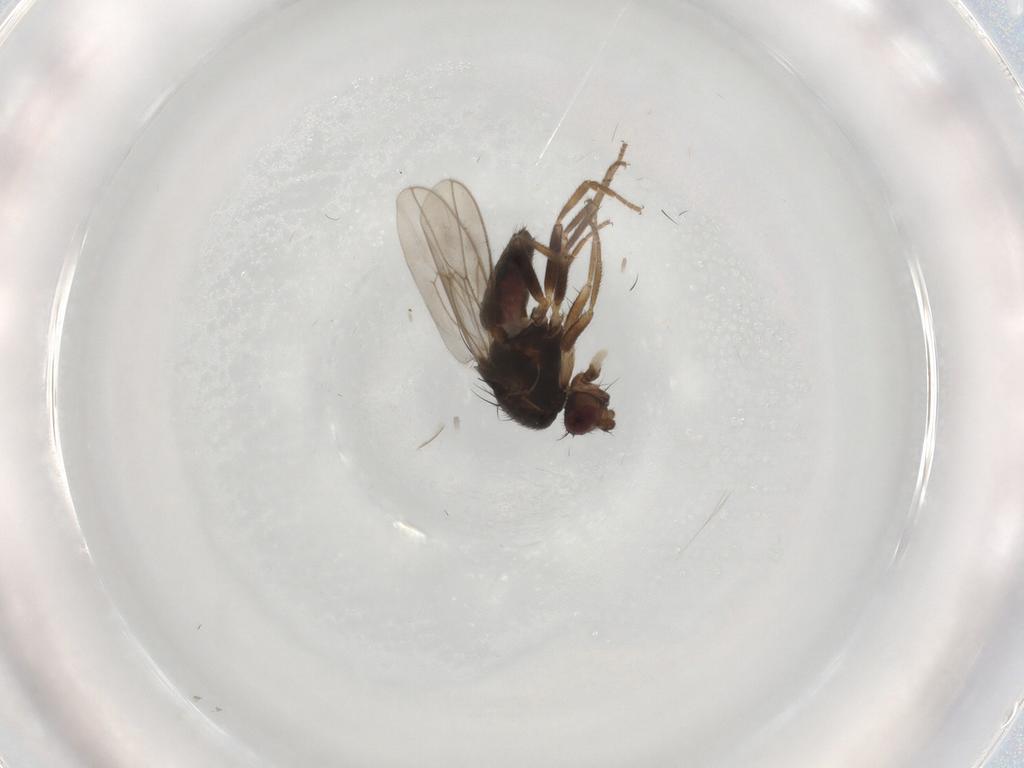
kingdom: Animalia
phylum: Arthropoda
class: Insecta
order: Diptera
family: Sphaeroceridae
